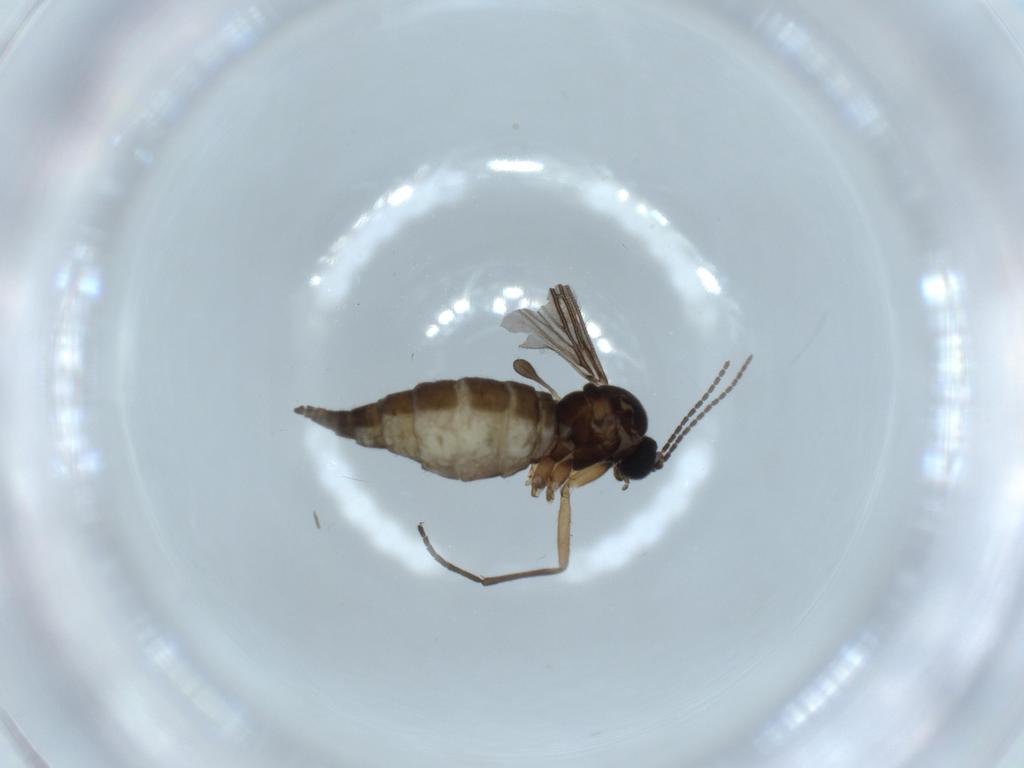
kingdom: Animalia
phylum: Arthropoda
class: Insecta
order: Diptera
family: Sciaridae
